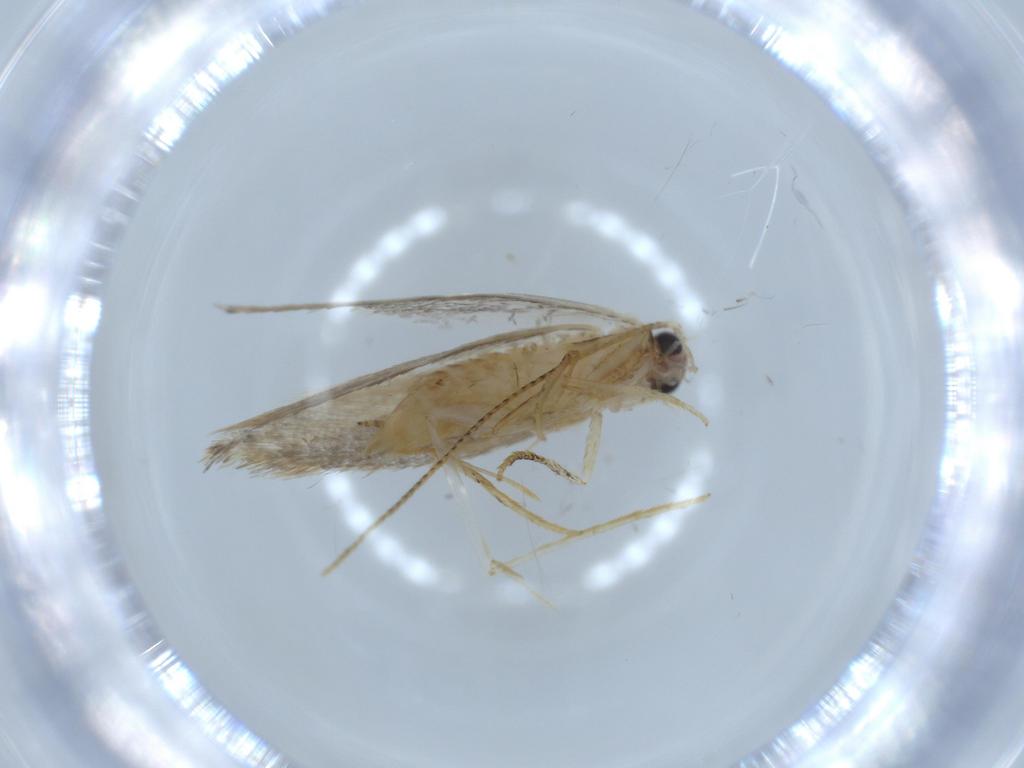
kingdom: Animalia
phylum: Arthropoda
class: Insecta
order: Lepidoptera
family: Tineidae
